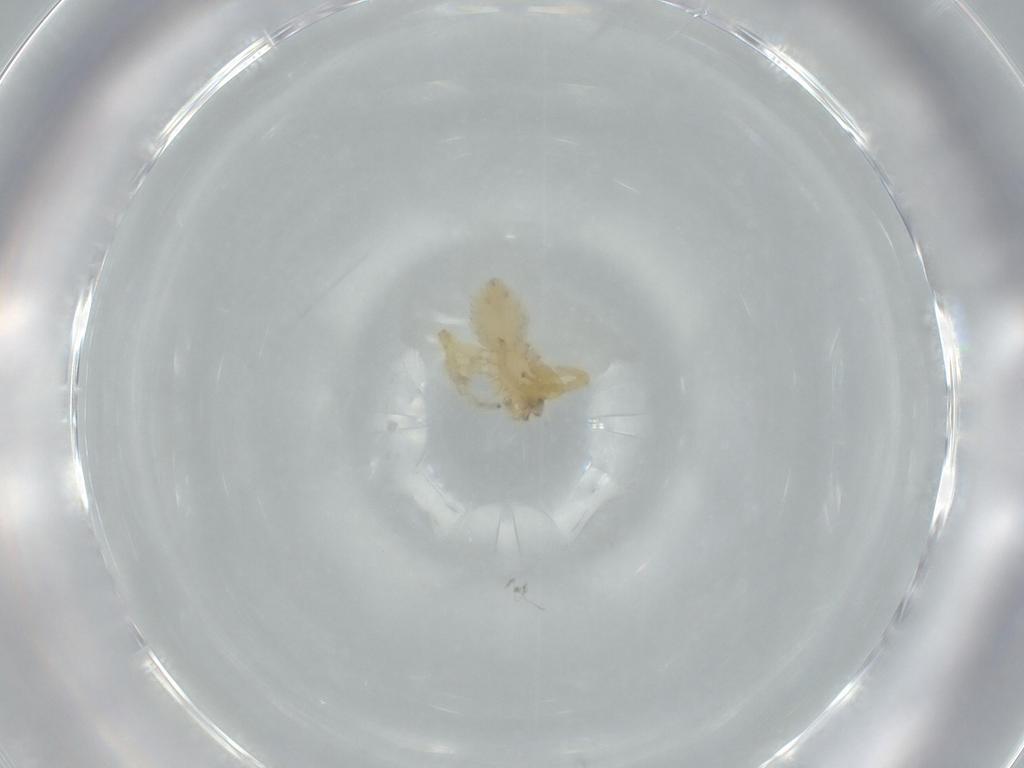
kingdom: Animalia
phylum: Arthropoda
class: Arachnida
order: Araneae
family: Oonopidae
